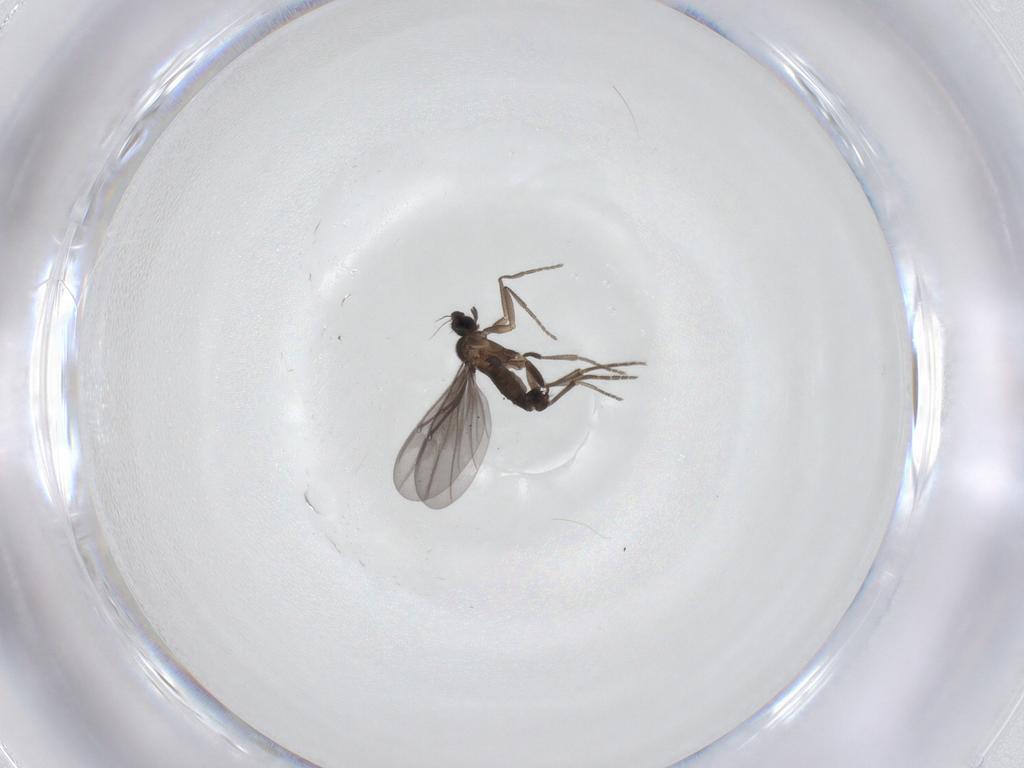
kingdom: Animalia
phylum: Arthropoda
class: Insecta
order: Diptera
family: Phoridae
